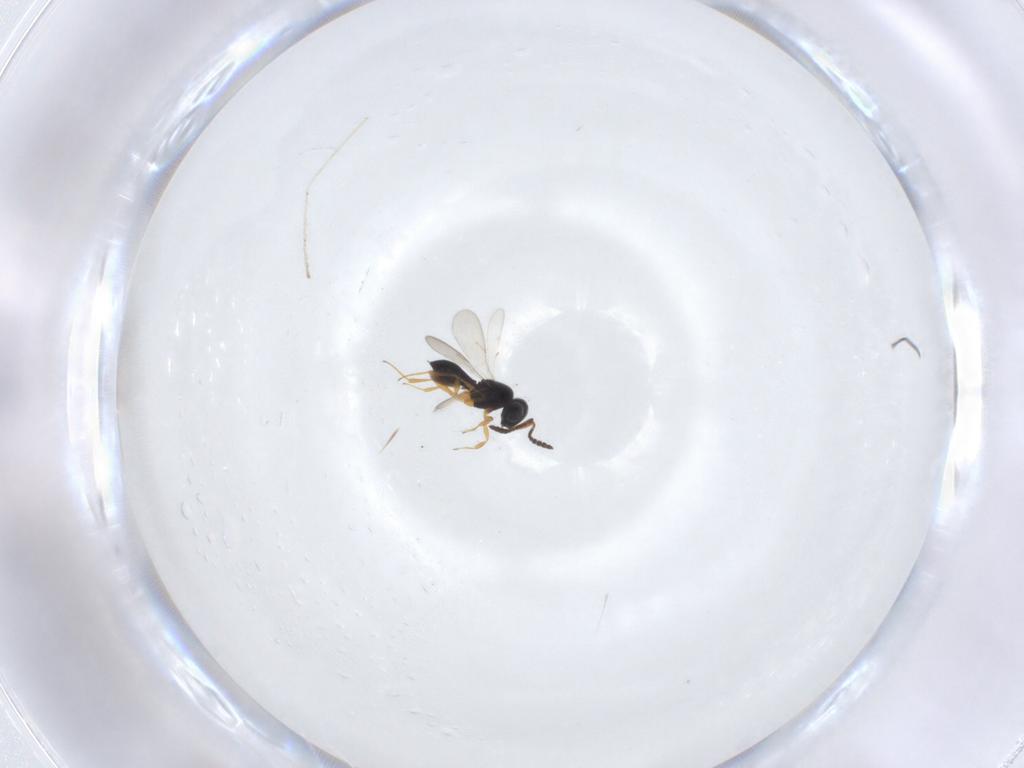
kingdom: Animalia
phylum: Arthropoda
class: Insecta
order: Hymenoptera
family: Scelionidae
